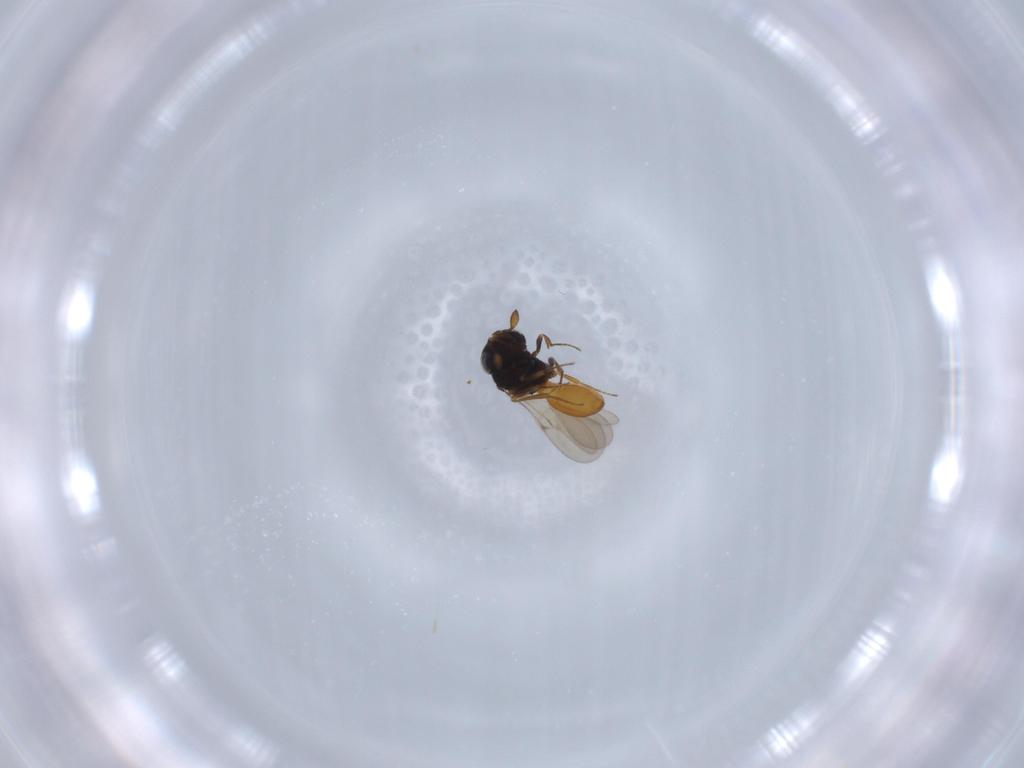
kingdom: Animalia
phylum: Arthropoda
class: Insecta
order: Hymenoptera
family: Scelionidae
